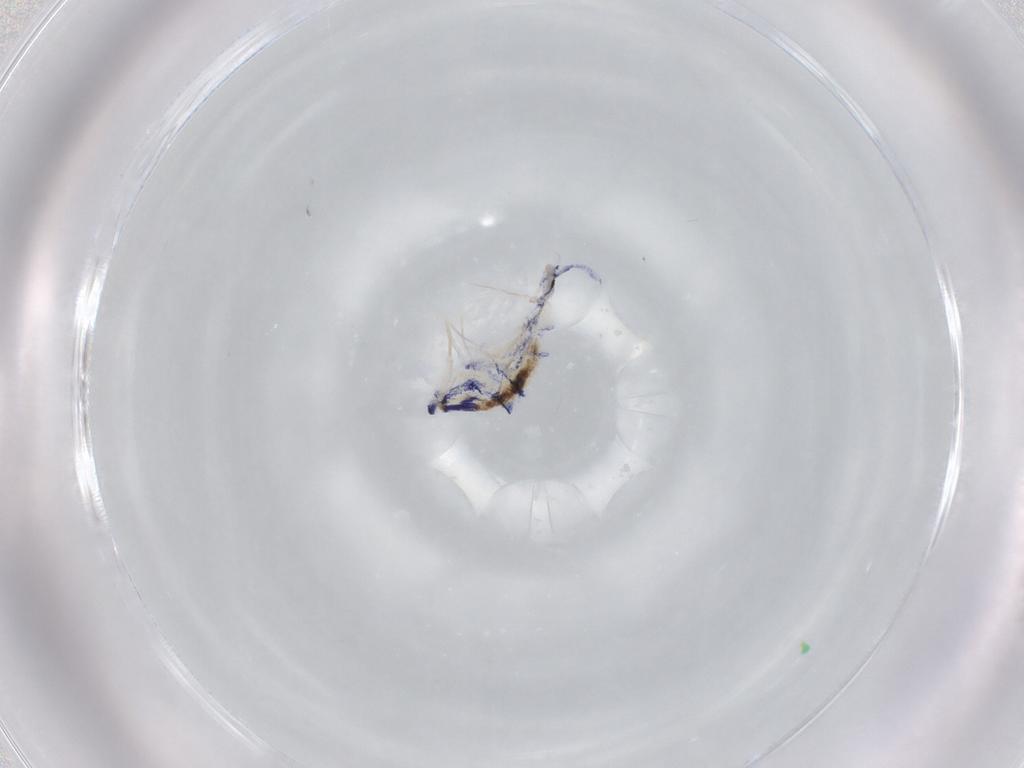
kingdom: Animalia
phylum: Arthropoda
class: Collembola
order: Entomobryomorpha
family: Entomobryidae
